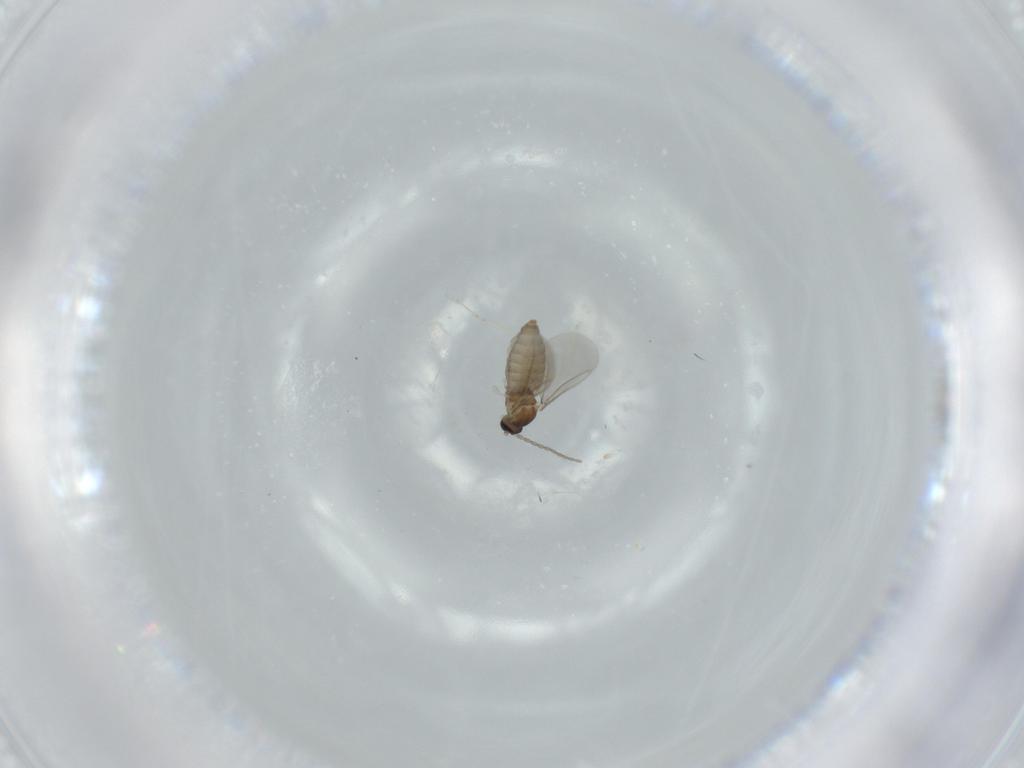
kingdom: Animalia
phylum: Arthropoda
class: Insecta
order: Diptera
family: Cecidomyiidae
